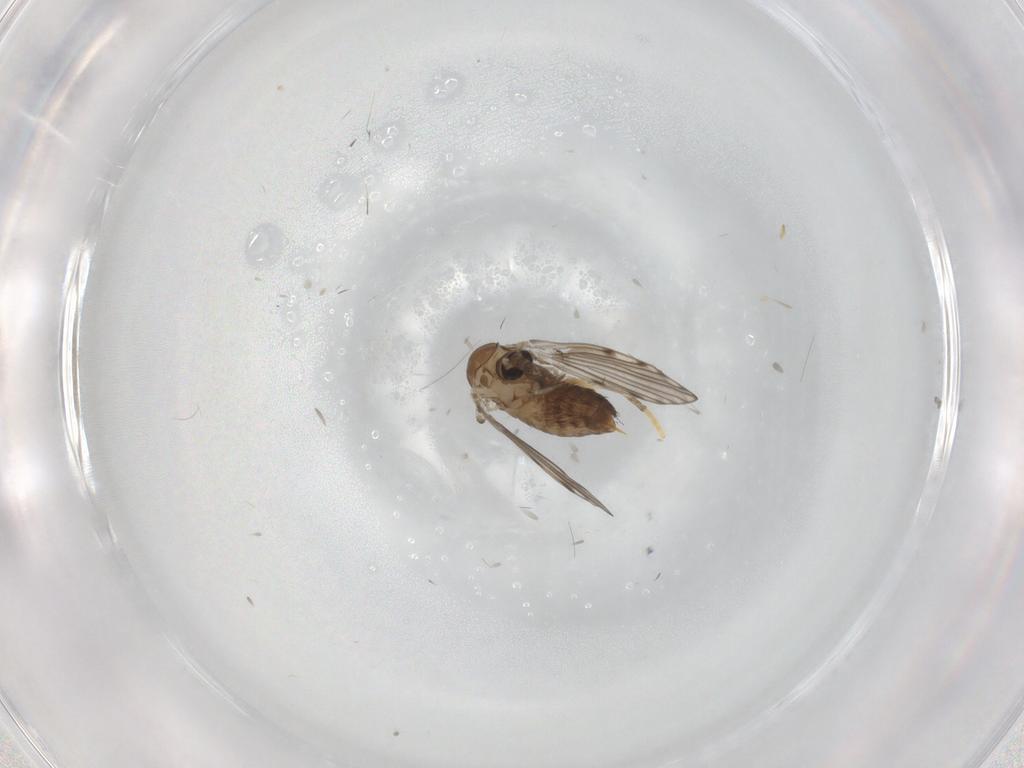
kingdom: Animalia
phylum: Arthropoda
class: Insecta
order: Diptera
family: Psychodidae
